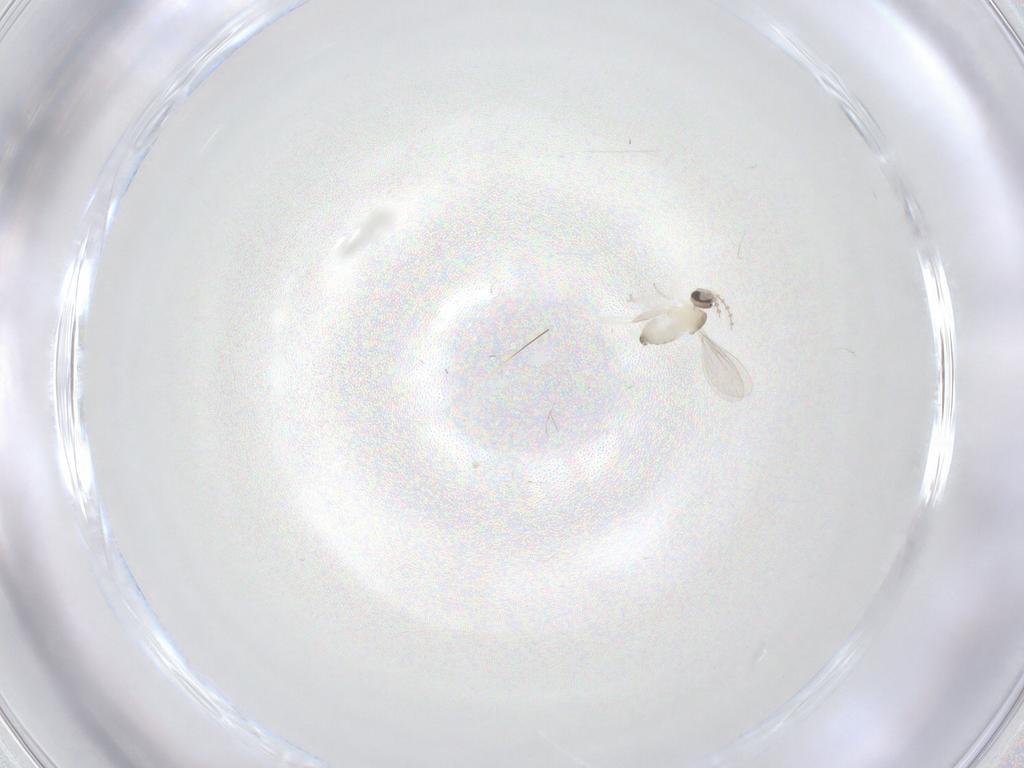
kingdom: Animalia
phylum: Arthropoda
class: Insecta
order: Diptera
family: Cecidomyiidae
